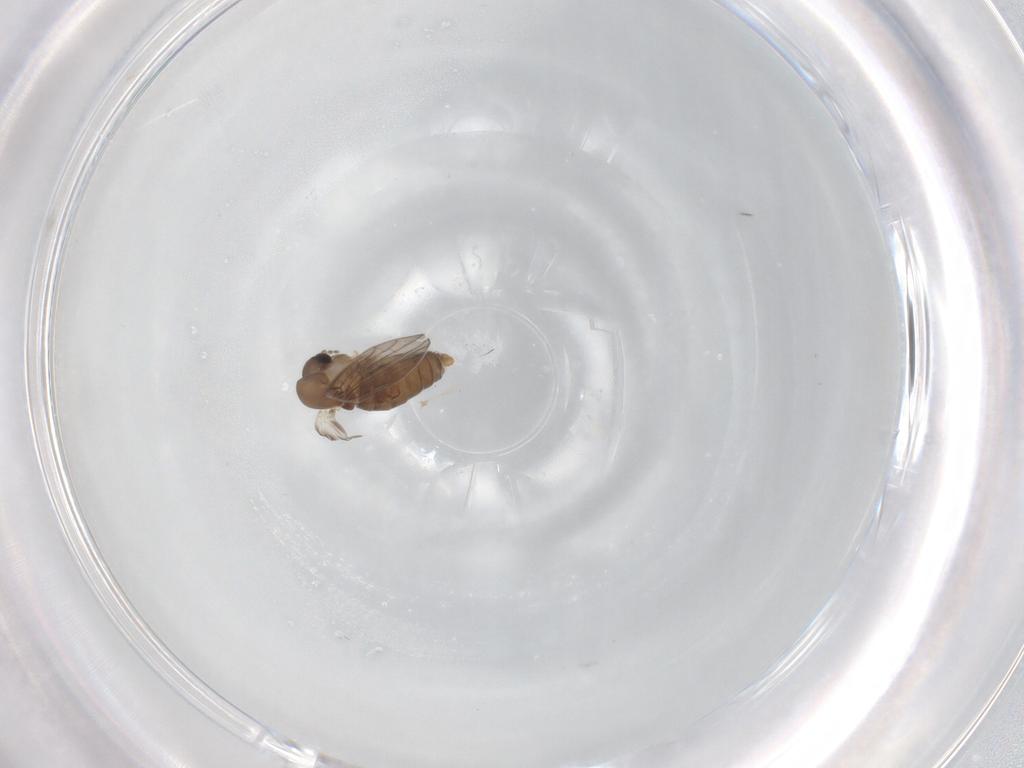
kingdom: Animalia
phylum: Arthropoda
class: Insecta
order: Diptera
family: Psychodidae
